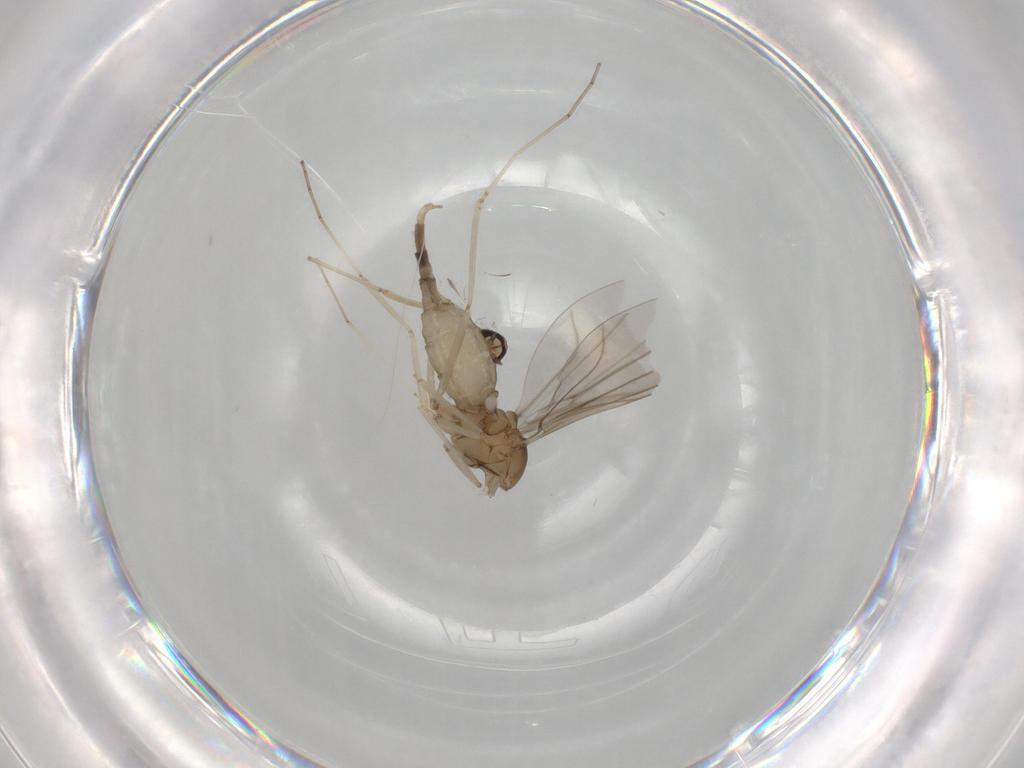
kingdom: Animalia
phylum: Arthropoda
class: Insecta
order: Diptera
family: Cecidomyiidae
